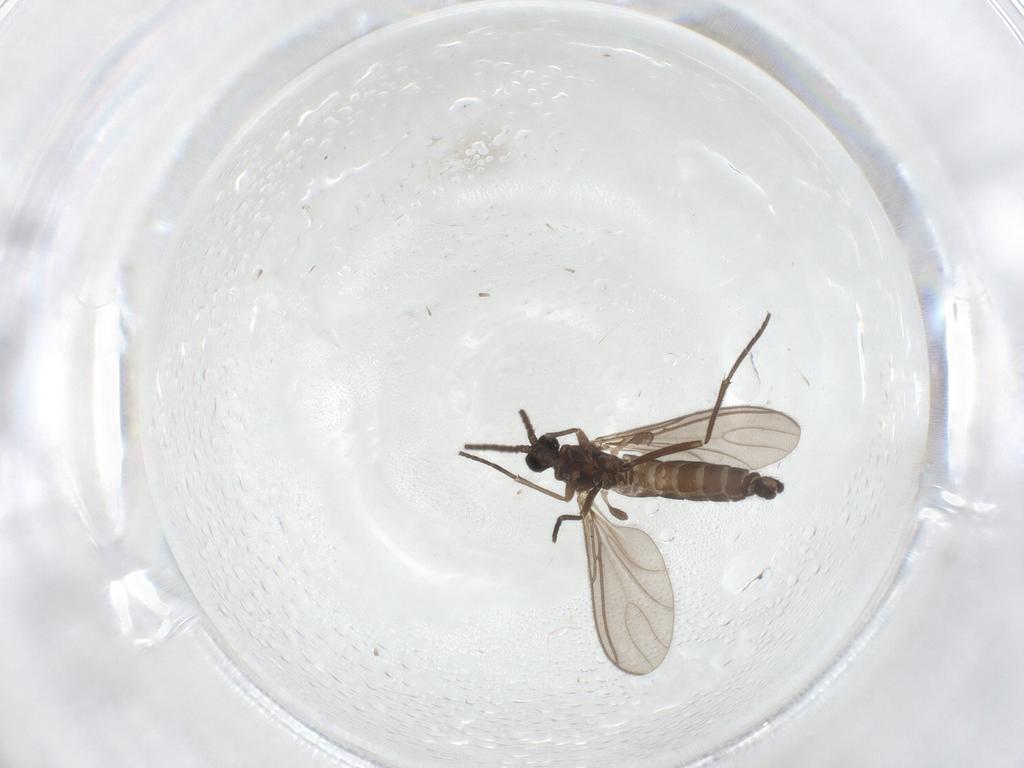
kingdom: Animalia
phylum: Arthropoda
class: Insecta
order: Diptera
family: Sciaridae
